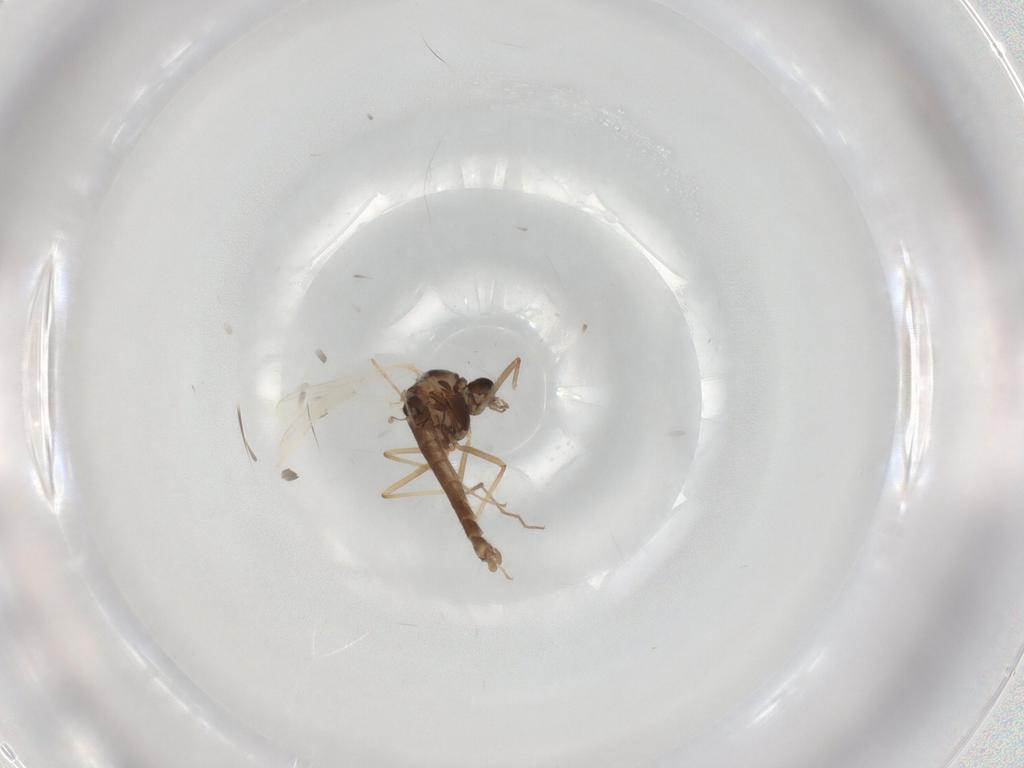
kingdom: Animalia
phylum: Arthropoda
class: Insecta
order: Diptera
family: Chironomidae
